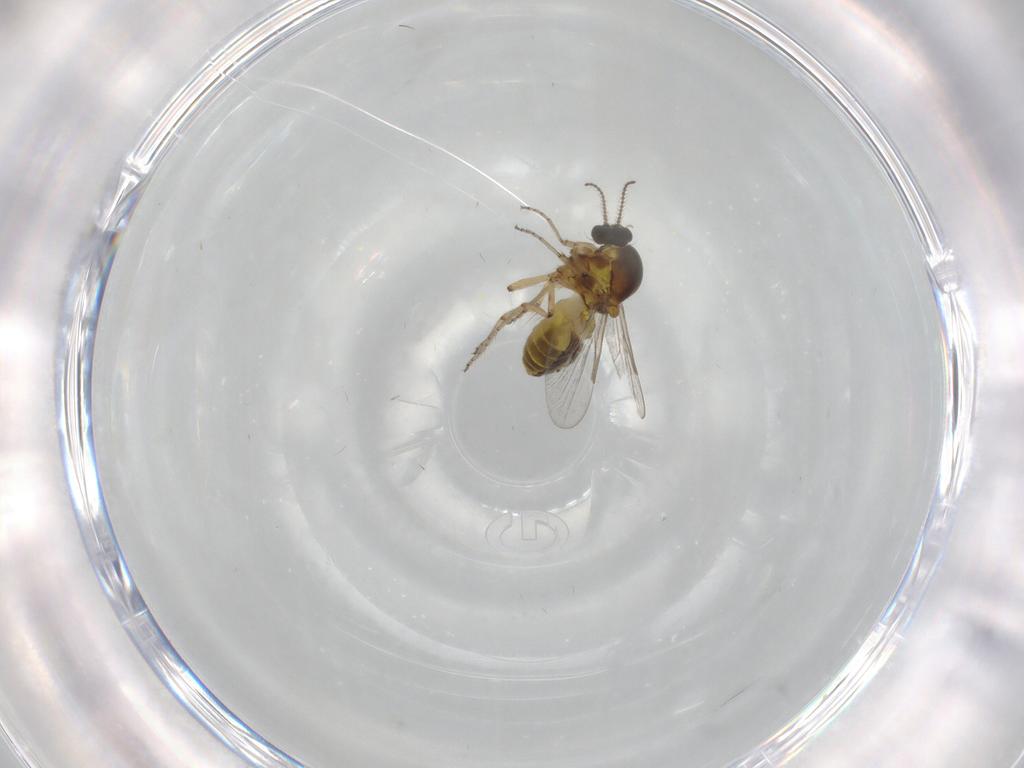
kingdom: Animalia
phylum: Arthropoda
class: Insecta
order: Diptera
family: Ceratopogonidae
